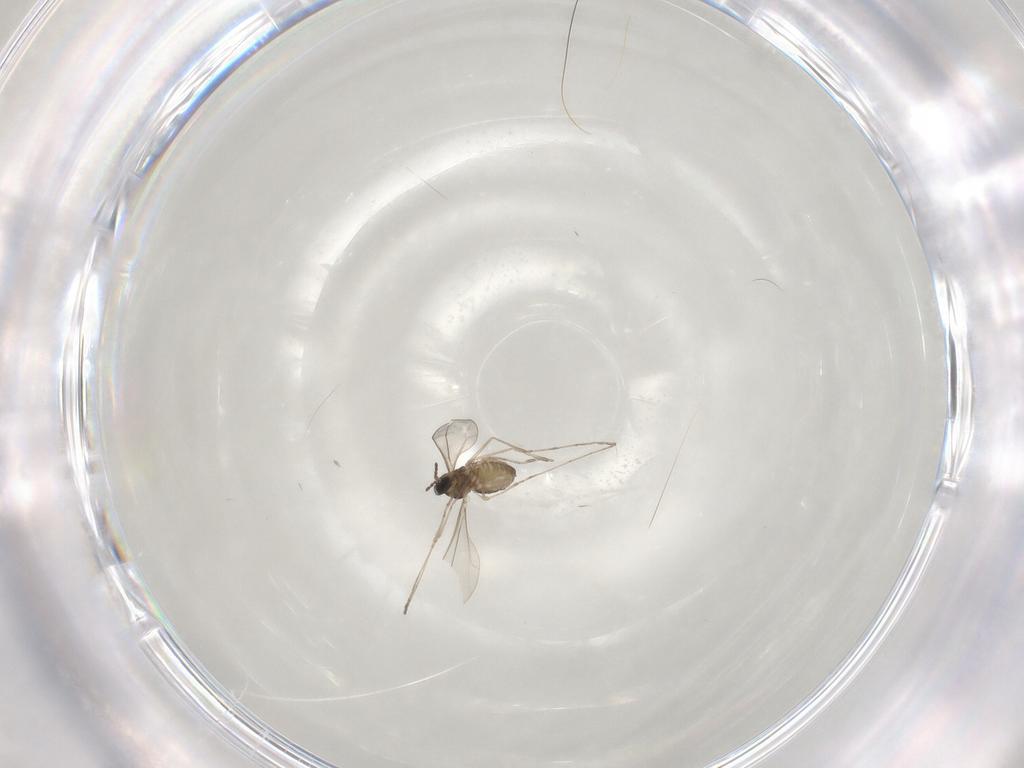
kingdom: Animalia
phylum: Arthropoda
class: Insecta
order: Diptera
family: Cecidomyiidae
